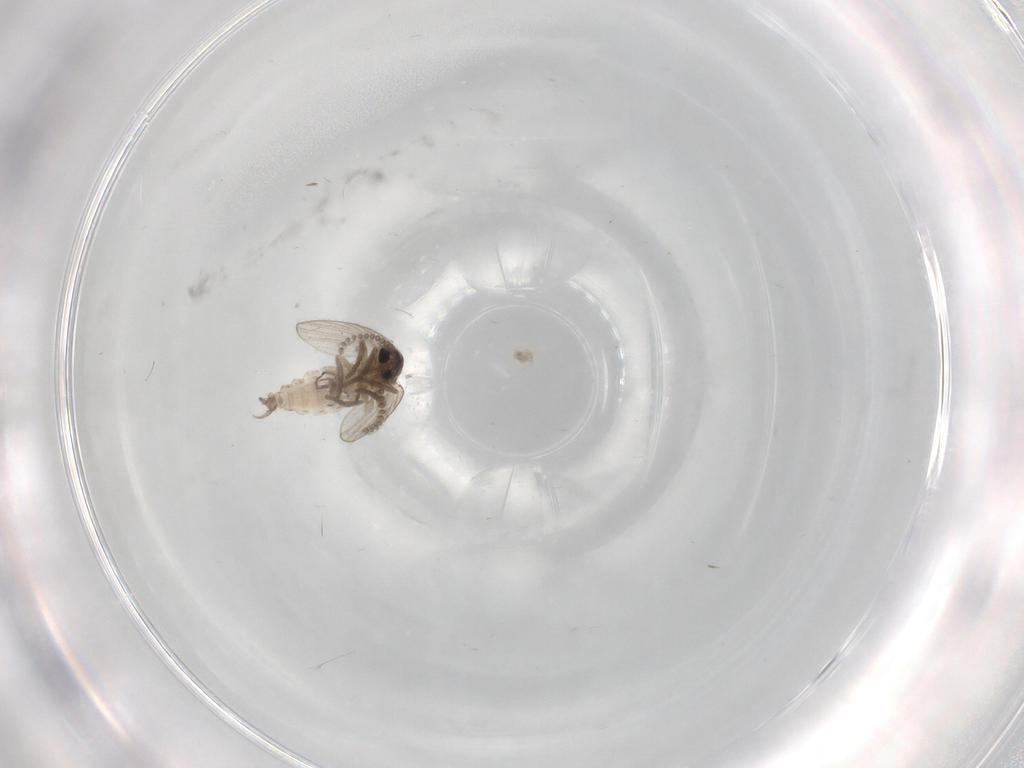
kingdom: Animalia
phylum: Arthropoda
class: Insecta
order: Diptera
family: Psychodidae
